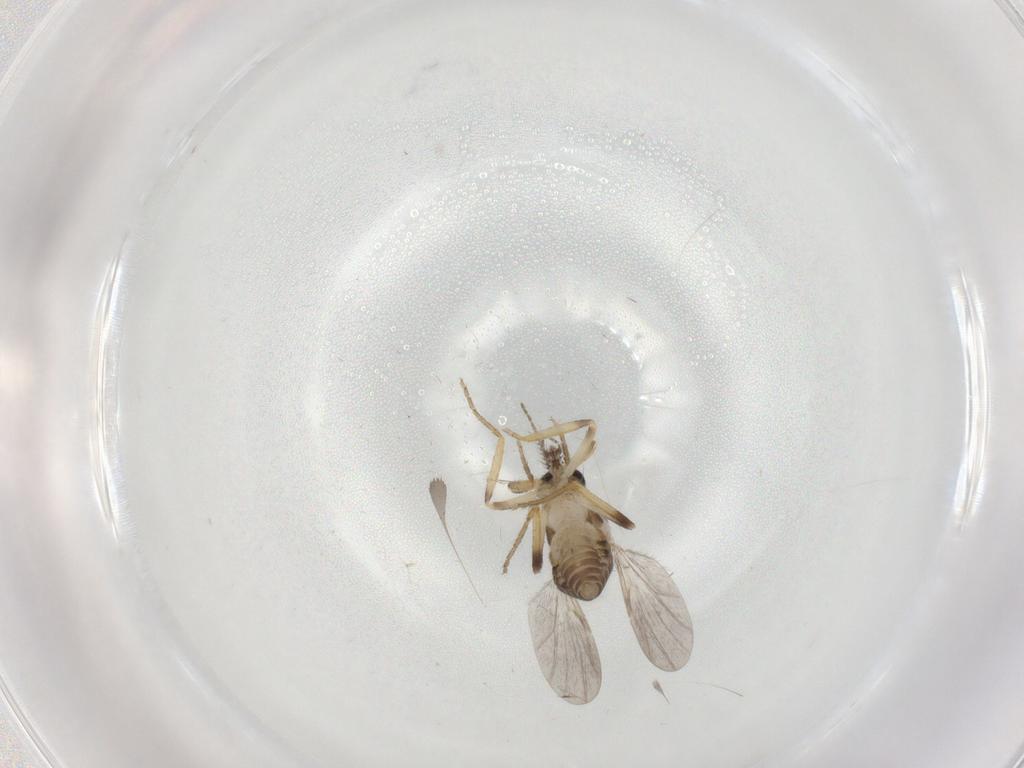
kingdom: Animalia
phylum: Arthropoda
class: Insecta
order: Diptera
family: Ceratopogonidae
